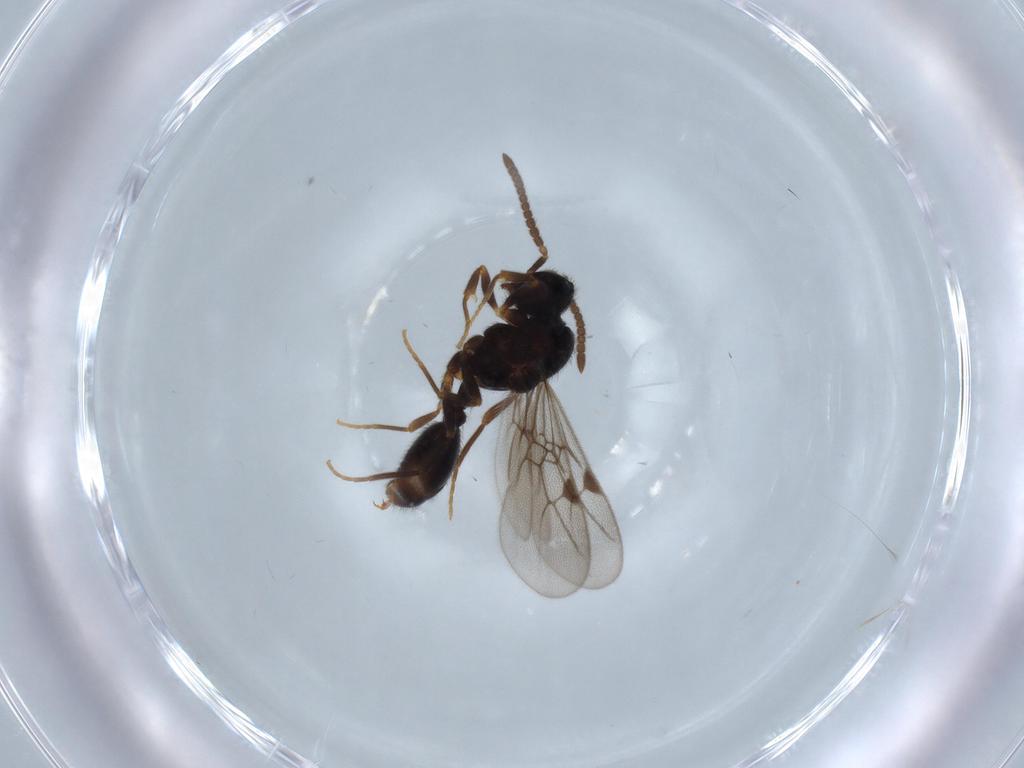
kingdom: Animalia
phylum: Arthropoda
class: Insecta
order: Hymenoptera
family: Formicidae
